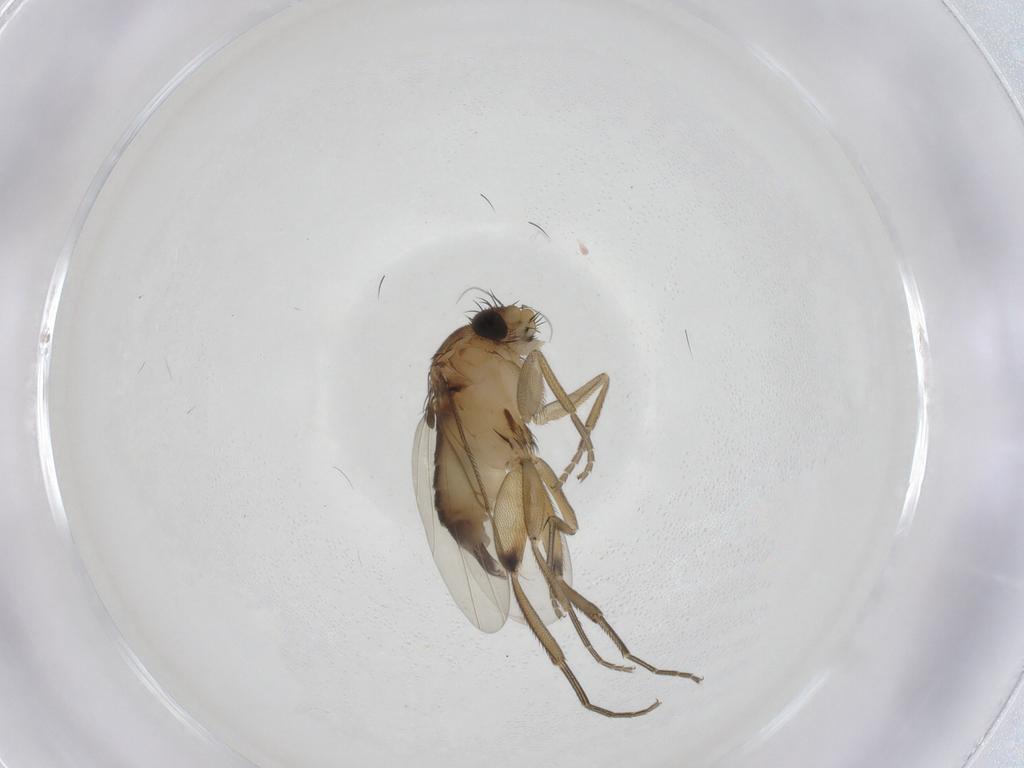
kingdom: Animalia
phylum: Arthropoda
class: Insecta
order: Diptera
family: Phoridae
